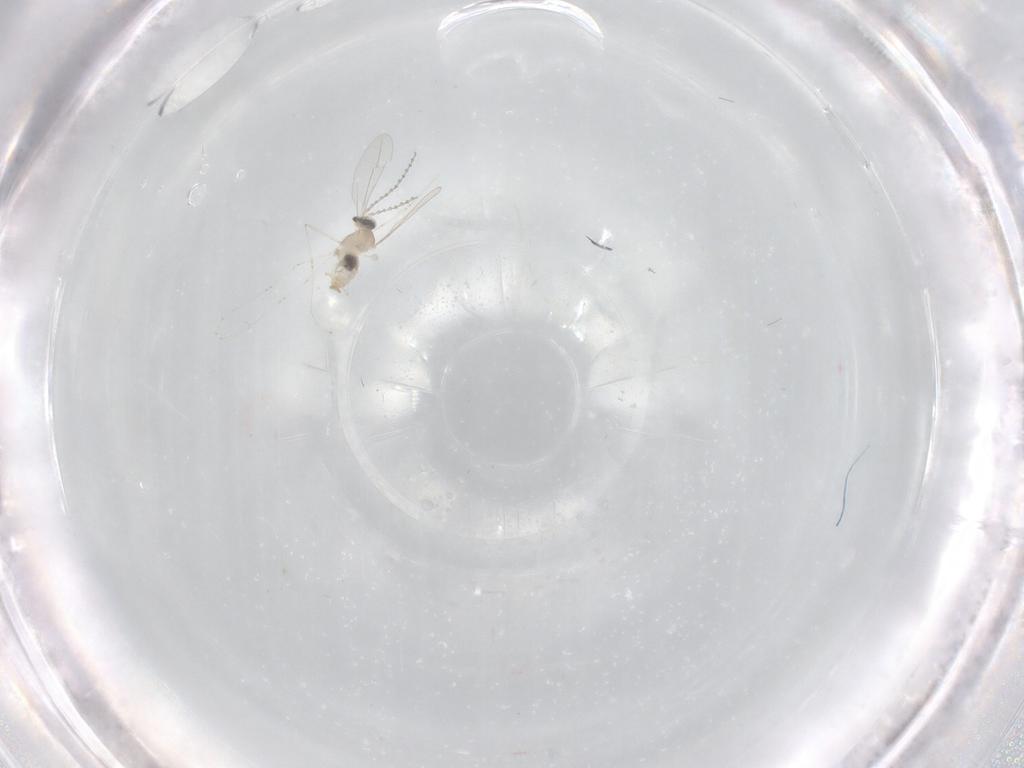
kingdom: Animalia
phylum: Arthropoda
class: Insecta
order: Diptera
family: Cecidomyiidae
